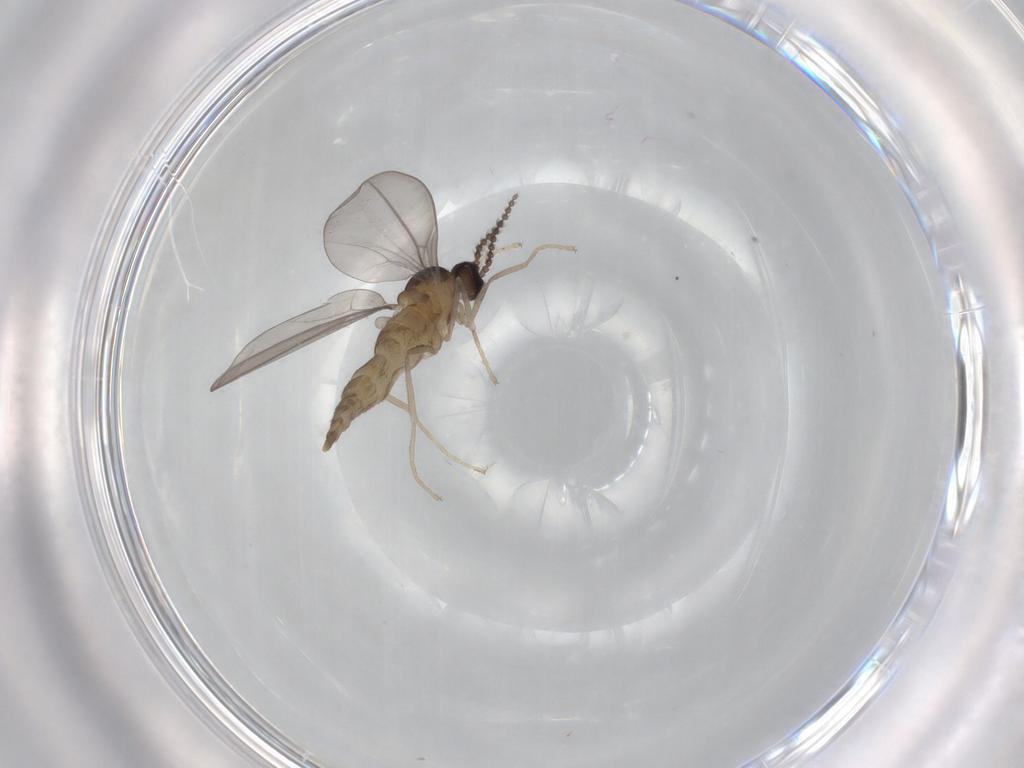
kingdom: Animalia
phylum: Arthropoda
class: Insecta
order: Diptera
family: Cecidomyiidae
